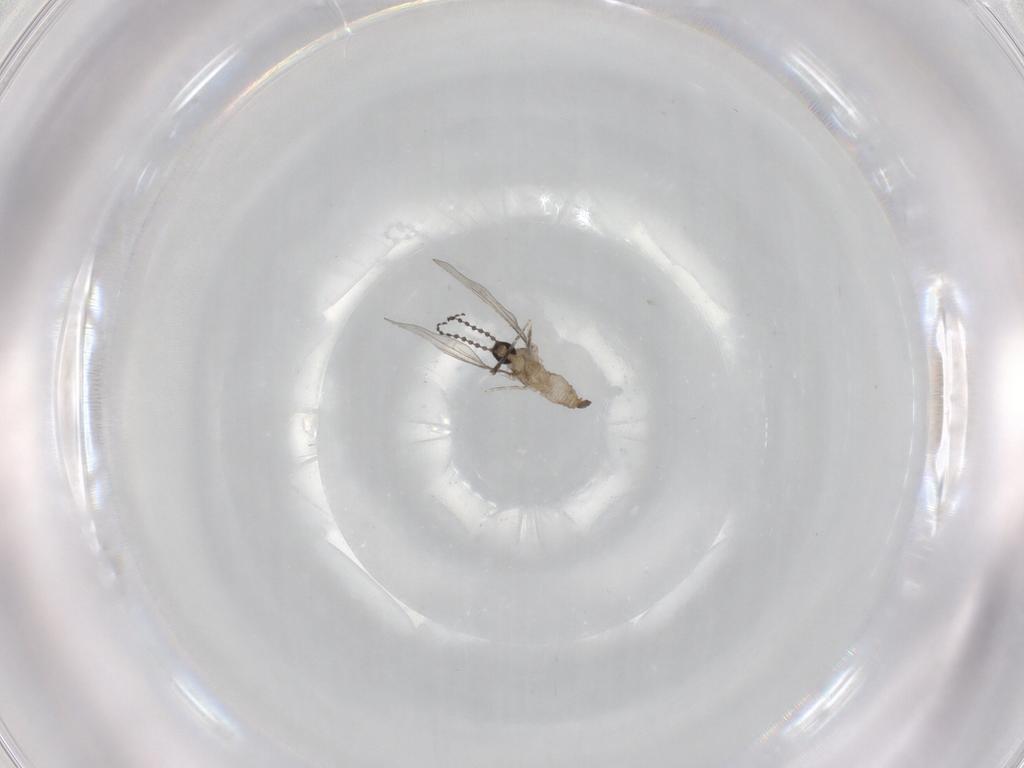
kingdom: Animalia
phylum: Arthropoda
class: Insecta
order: Diptera
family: Cecidomyiidae
